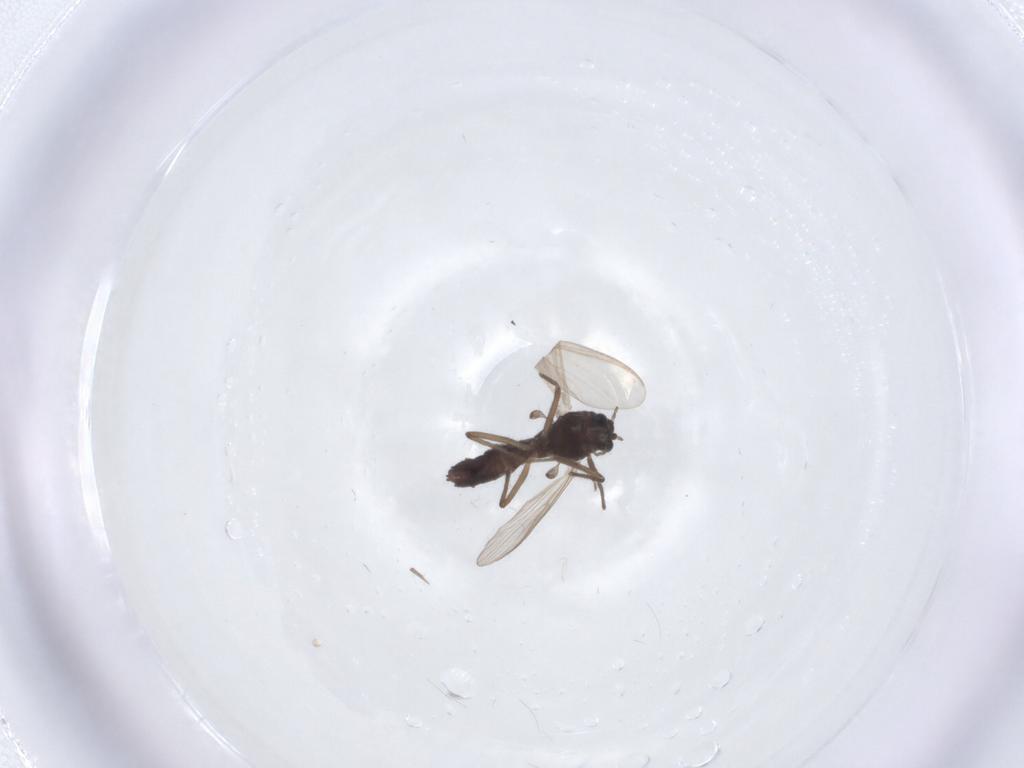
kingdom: Animalia
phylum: Arthropoda
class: Insecta
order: Diptera
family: Chironomidae
